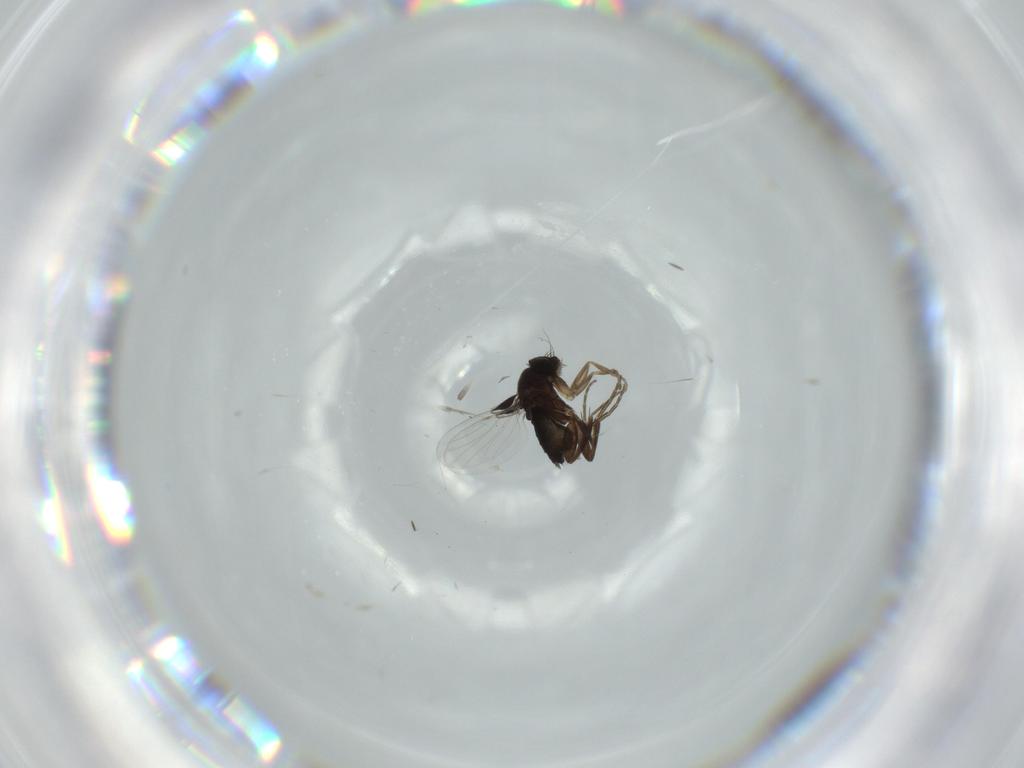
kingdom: Animalia
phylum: Arthropoda
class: Insecta
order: Diptera
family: Phoridae
